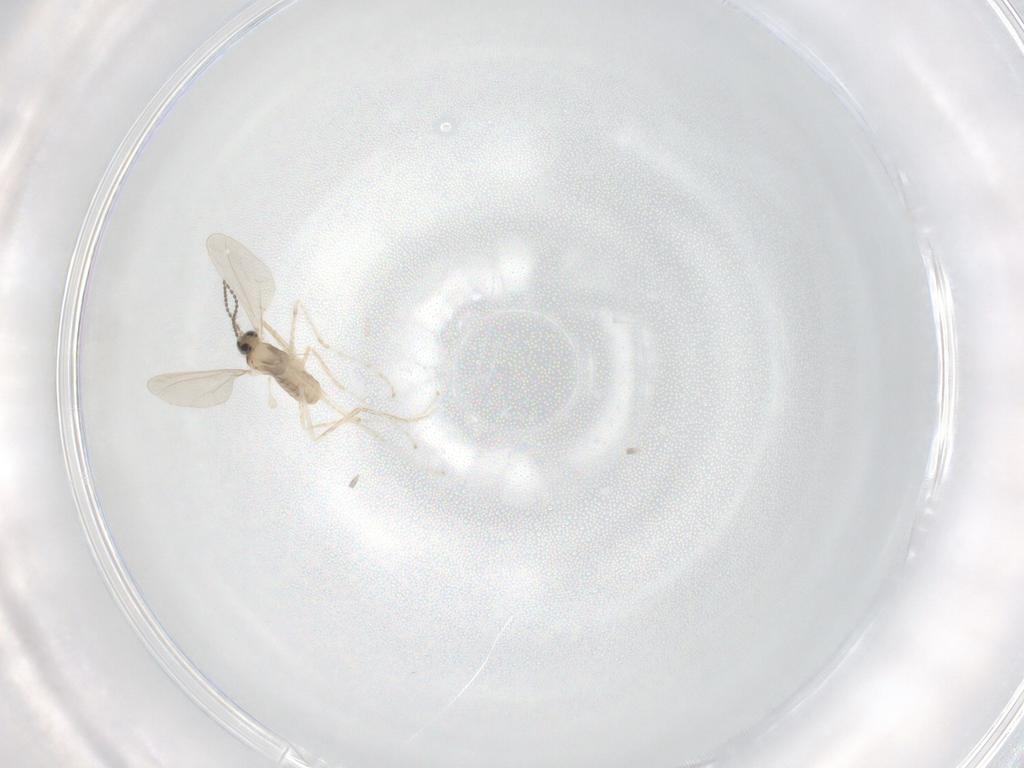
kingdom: Animalia
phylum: Arthropoda
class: Insecta
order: Diptera
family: Cecidomyiidae
